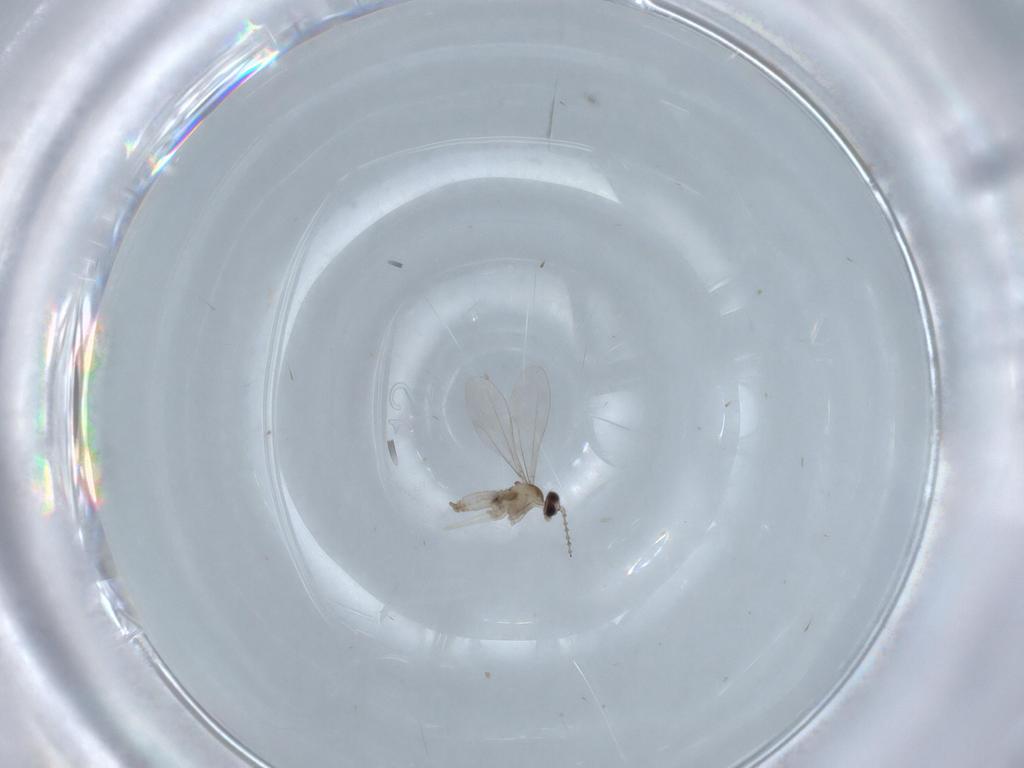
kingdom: Animalia
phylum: Arthropoda
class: Insecta
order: Diptera
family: Cecidomyiidae
